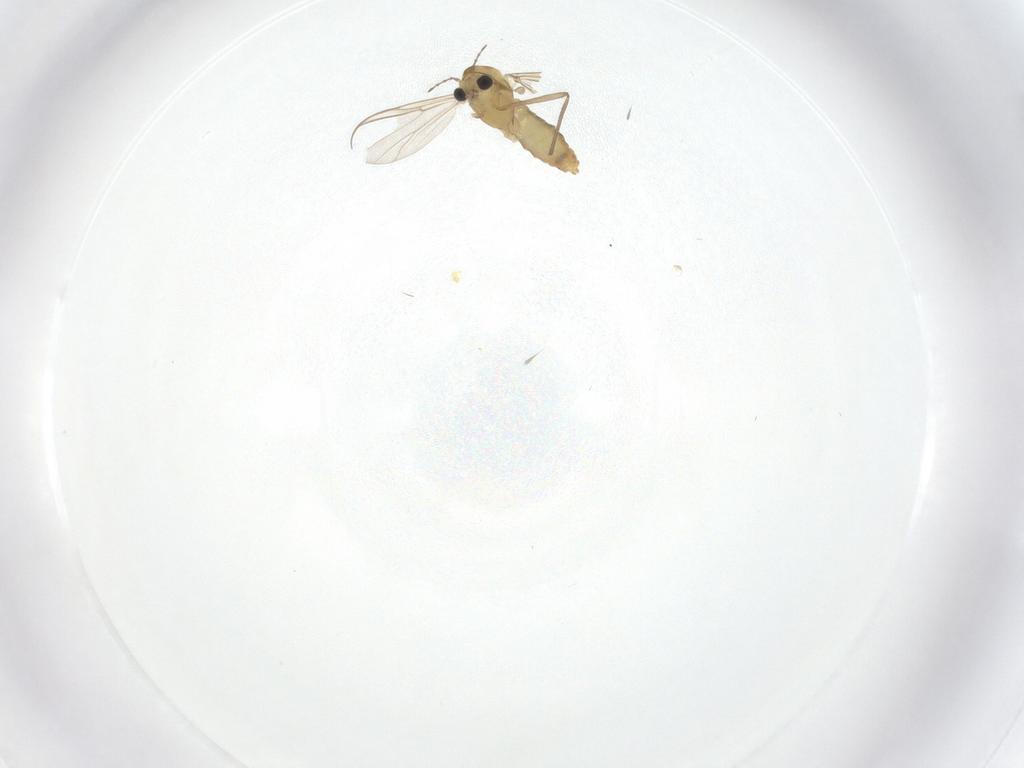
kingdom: Animalia
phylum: Arthropoda
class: Insecta
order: Diptera
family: Chironomidae
